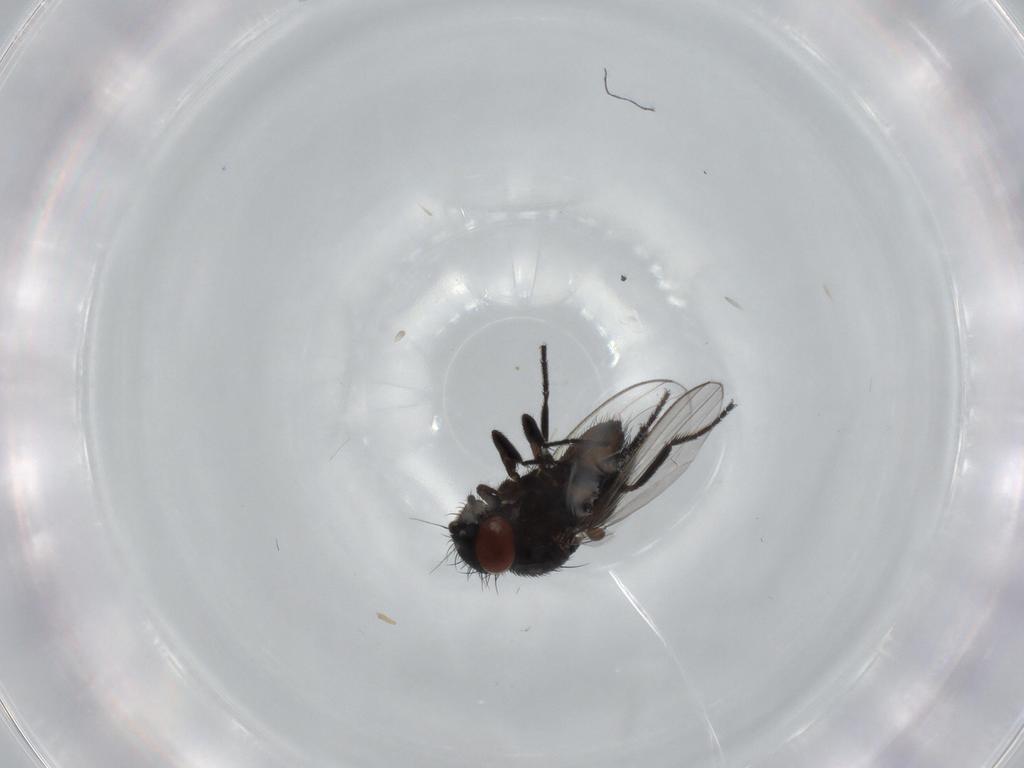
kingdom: Animalia
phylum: Arthropoda
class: Insecta
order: Diptera
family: Milichiidae
